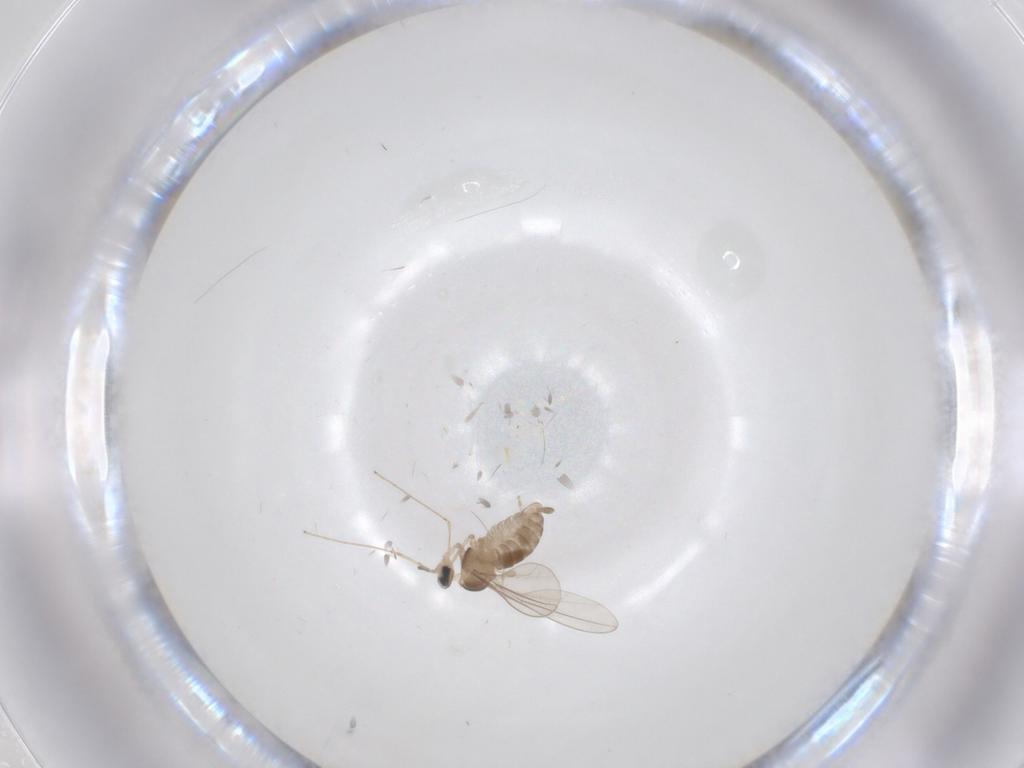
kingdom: Animalia
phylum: Arthropoda
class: Insecta
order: Diptera
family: Cecidomyiidae
